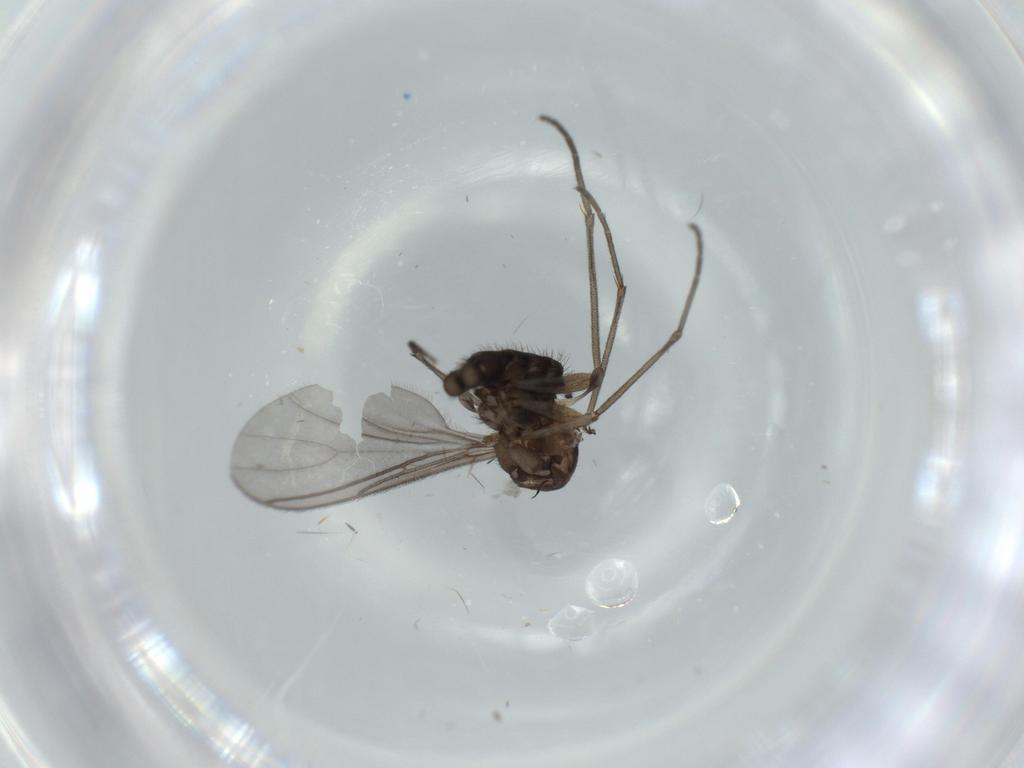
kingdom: Animalia
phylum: Arthropoda
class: Insecta
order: Diptera
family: Sciaridae
